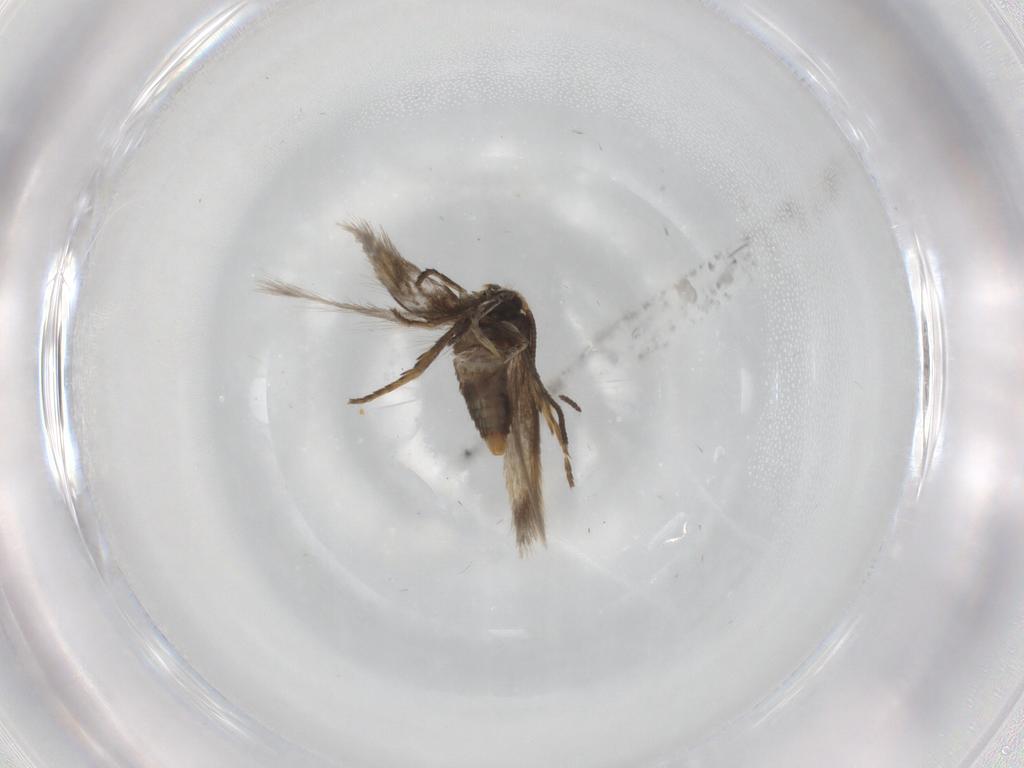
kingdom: Animalia
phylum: Arthropoda
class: Insecta
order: Lepidoptera
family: Nepticulidae
